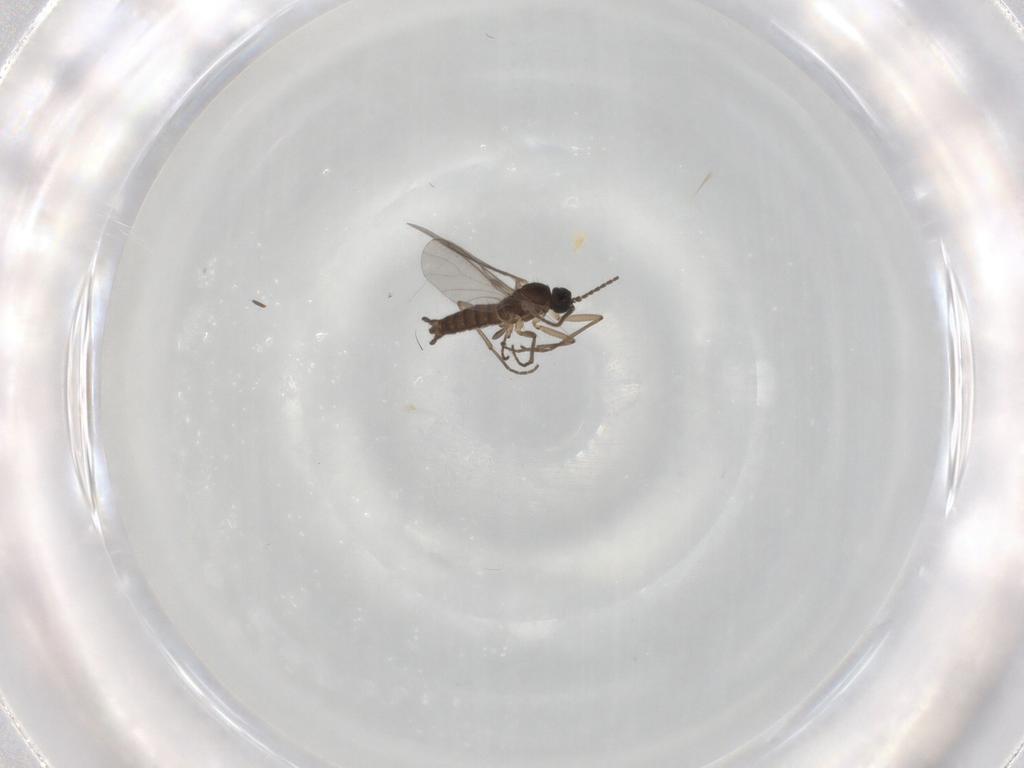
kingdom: Animalia
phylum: Arthropoda
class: Insecta
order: Diptera
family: Sciaridae
